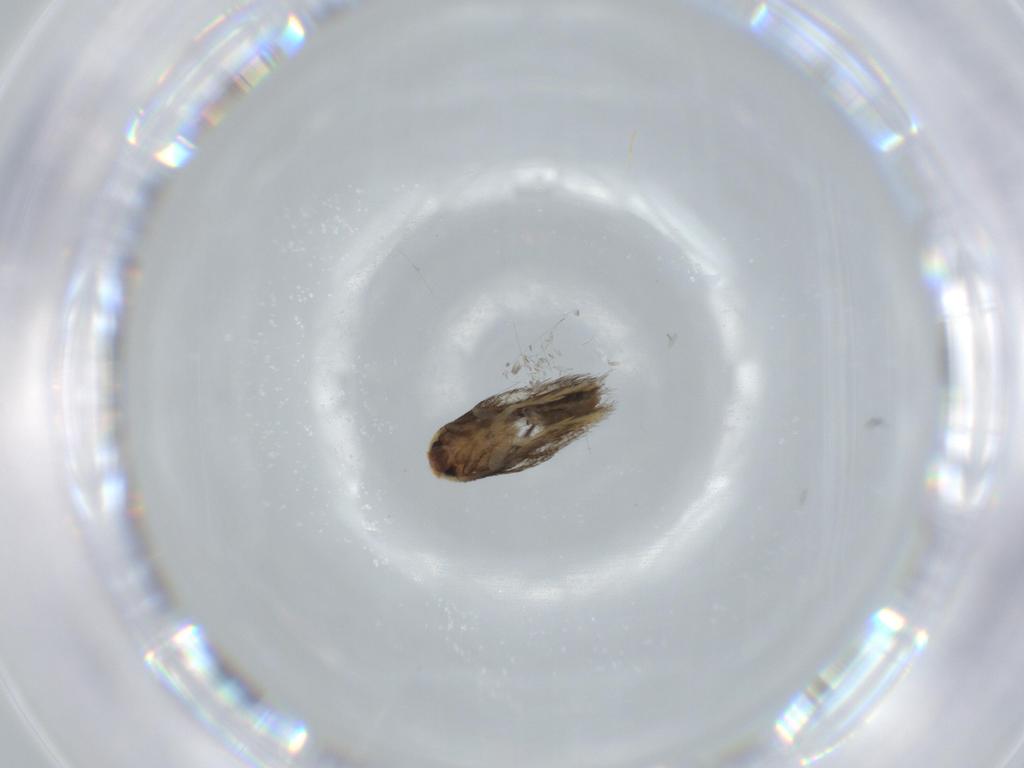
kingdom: Animalia
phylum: Arthropoda
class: Insecta
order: Lepidoptera
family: Nepticulidae
